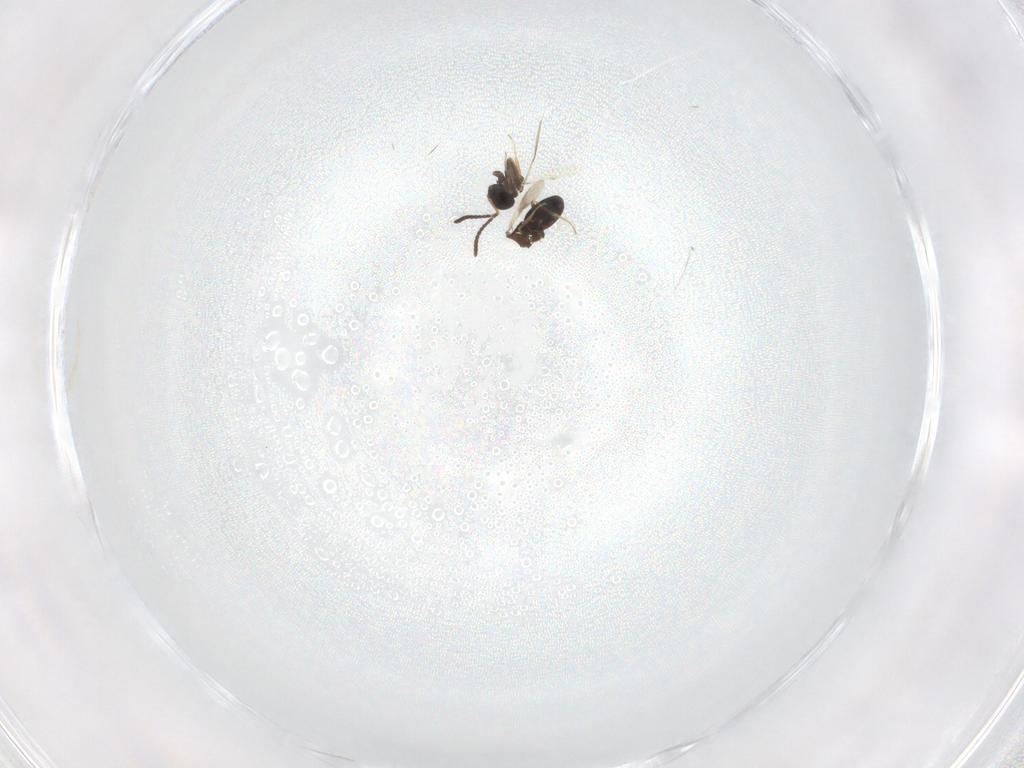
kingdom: Animalia
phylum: Arthropoda
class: Insecta
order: Hymenoptera
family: Scelionidae
